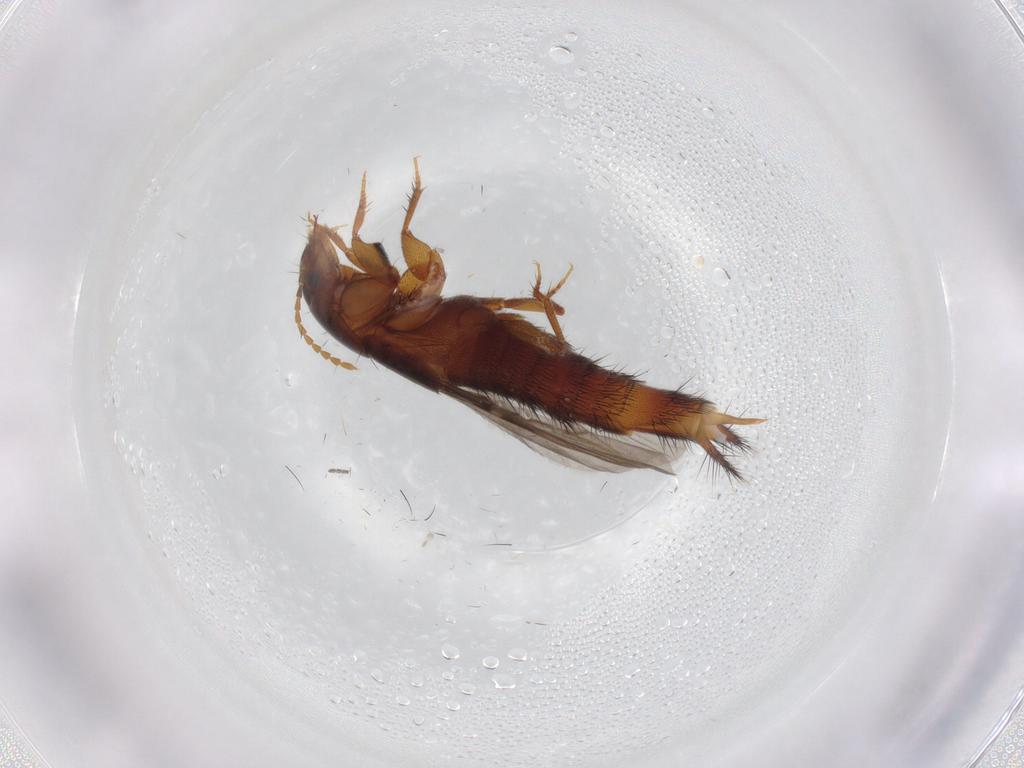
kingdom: Animalia
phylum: Arthropoda
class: Insecta
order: Coleoptera
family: Staphylinidae
